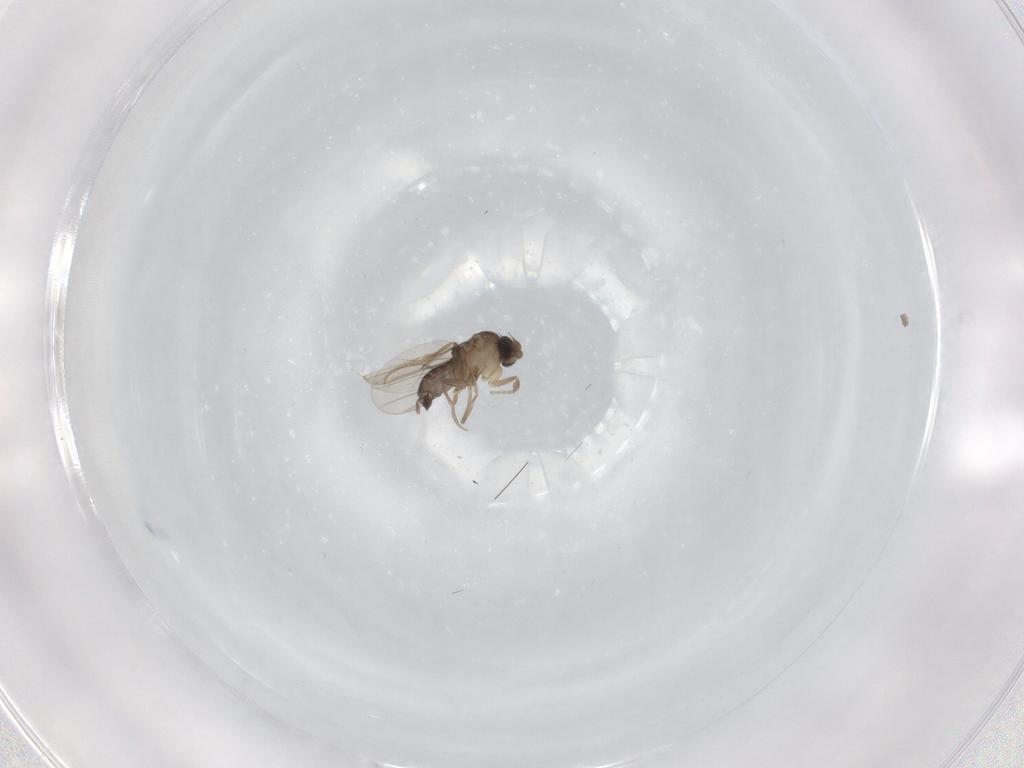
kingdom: Animalia
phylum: Arthropoda
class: Insecta
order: Diptera
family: Phoridae
